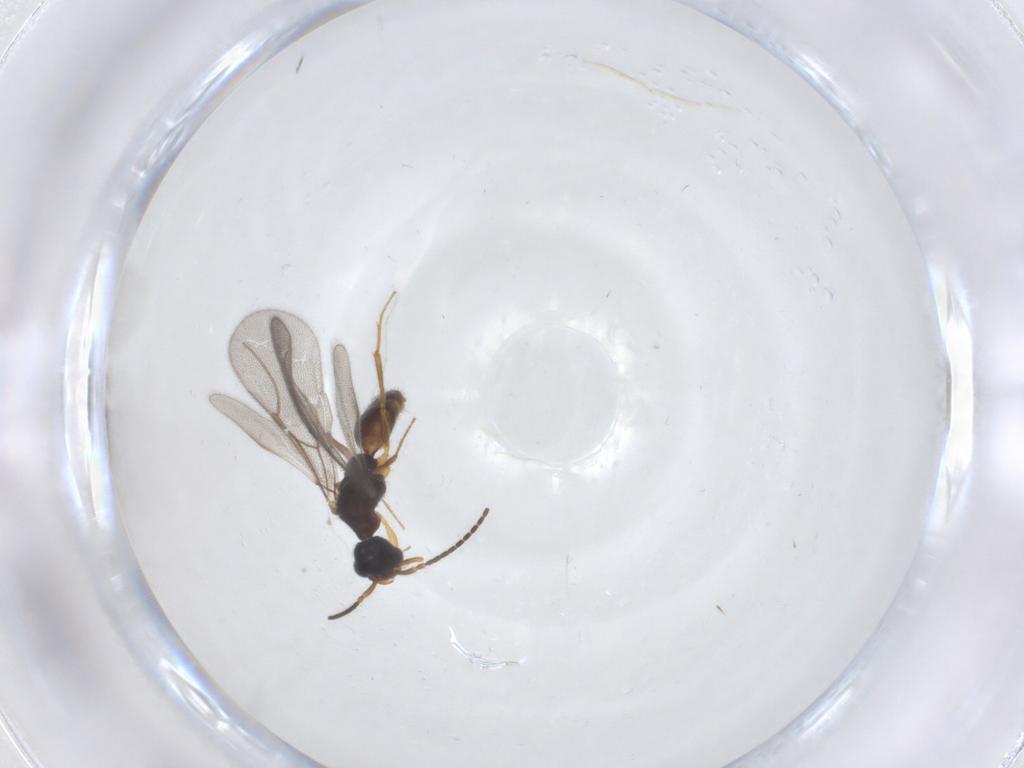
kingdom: Animalia
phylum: Arthropoda
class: Insecta
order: Hymenoptera
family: Bethylidae
